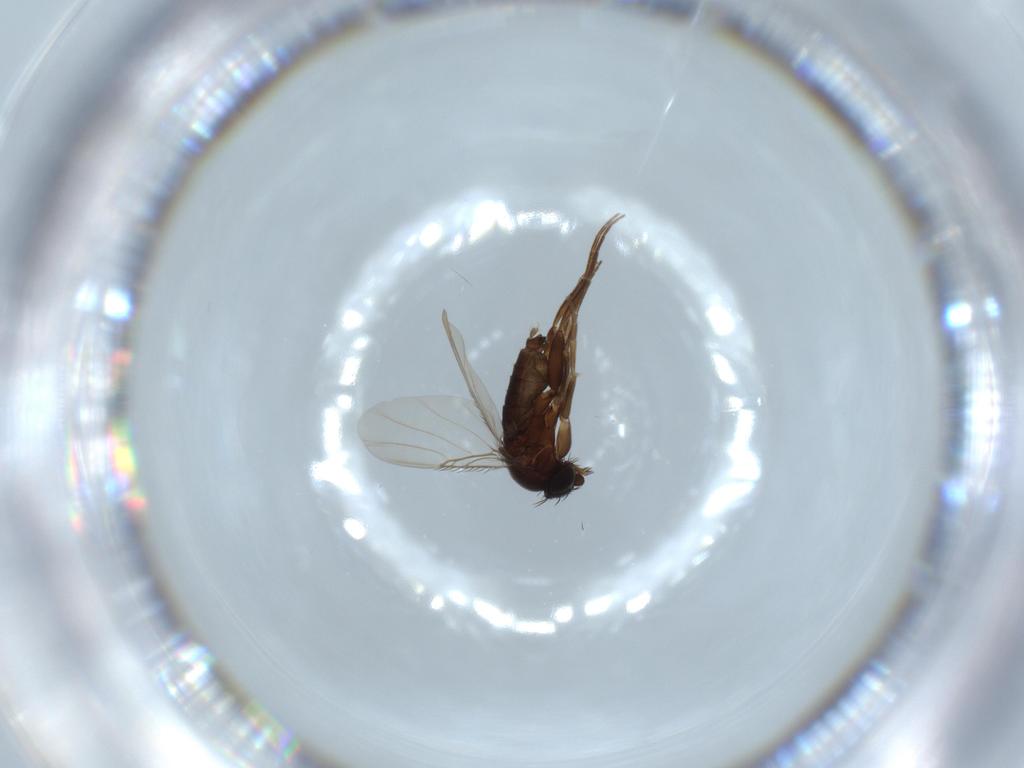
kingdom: Animalia
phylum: Arthropoda
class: Insecta
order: Diptera
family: Phoridae
